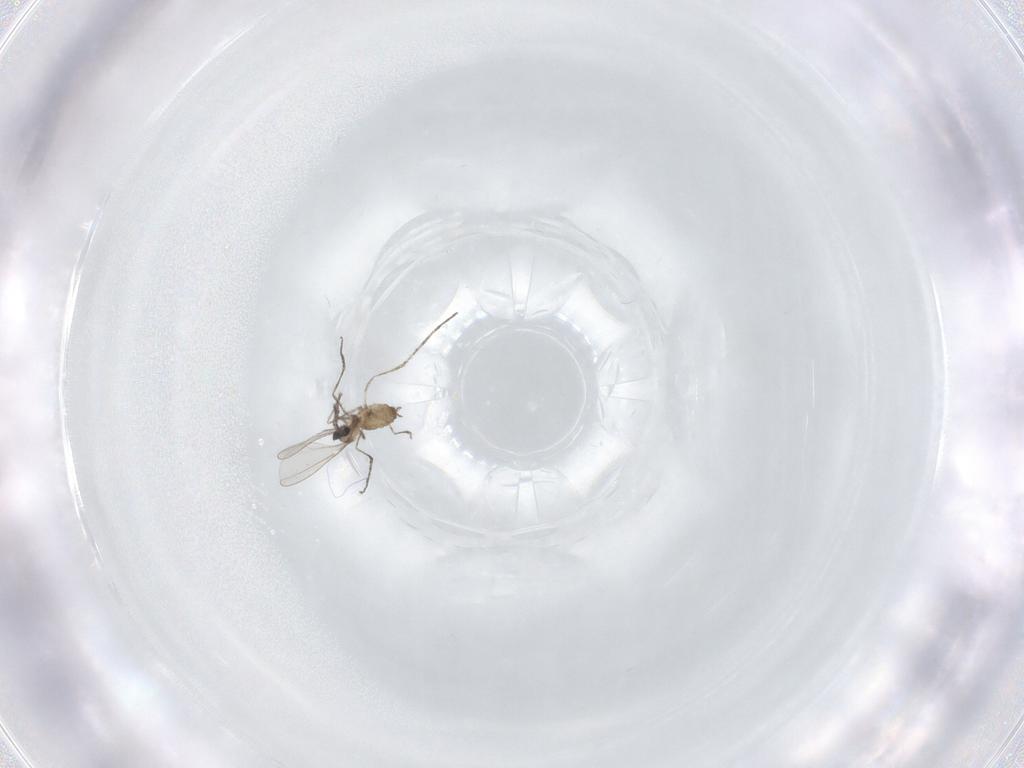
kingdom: Animalia
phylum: Arthropoda
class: Insecta
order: Diptera
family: Cecidomyiidae
